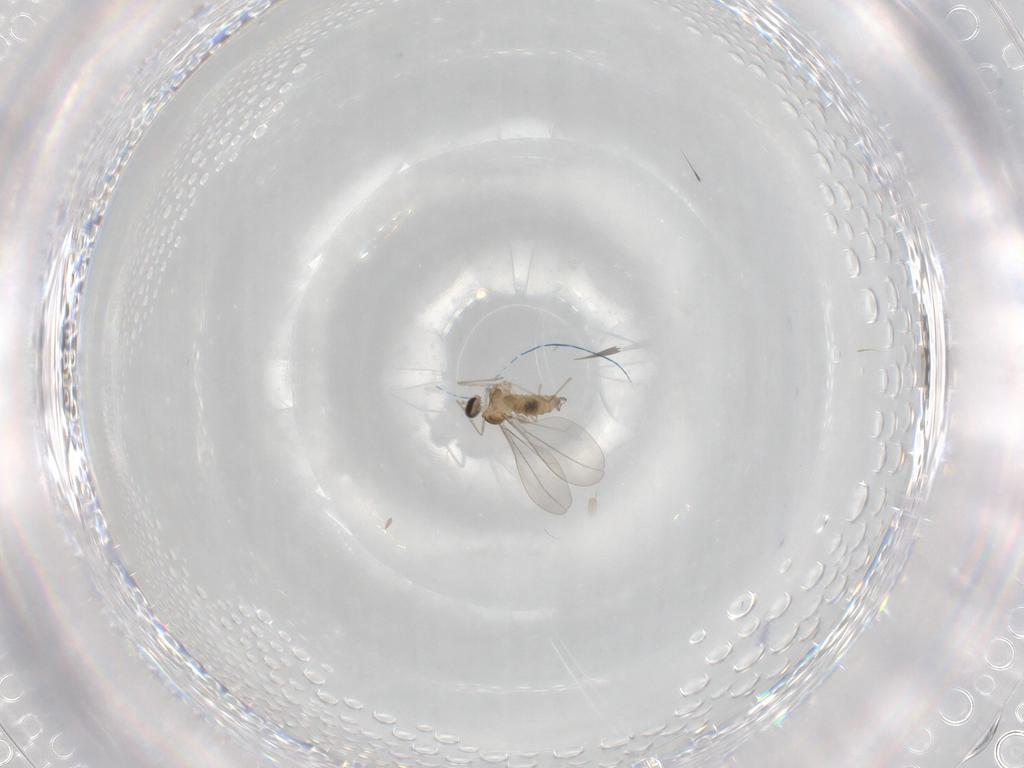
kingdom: Animalia
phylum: Arthropoda
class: Insecta
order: Diptera
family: Cecidomyiidae
